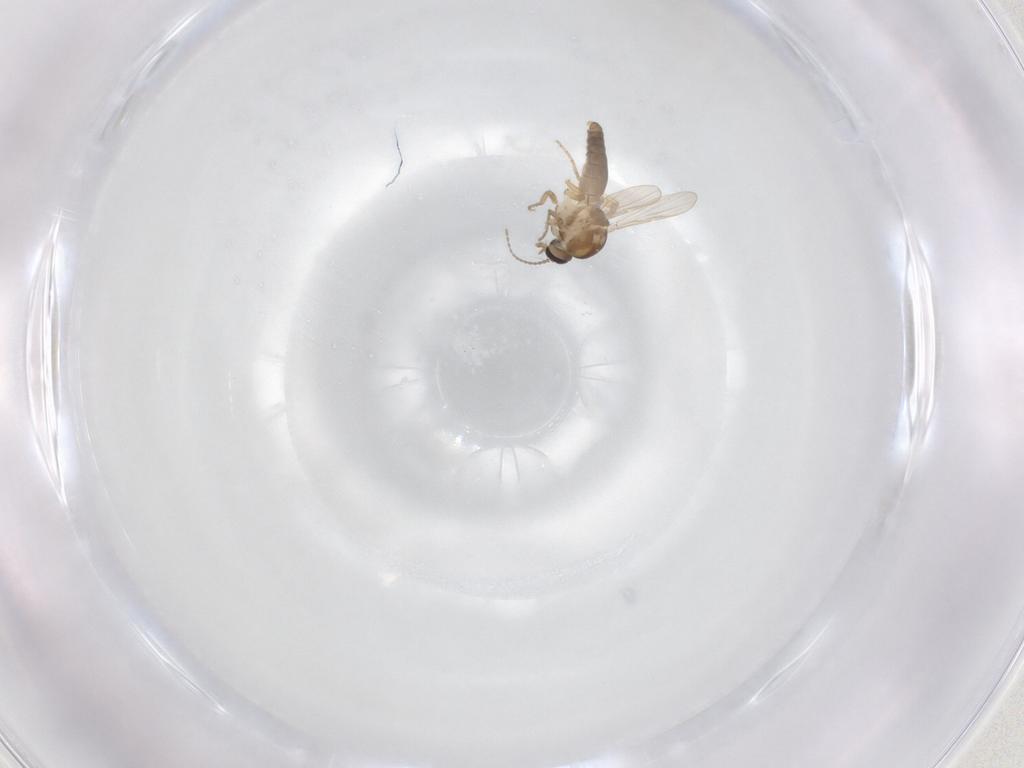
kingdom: Animalia
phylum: Arthropoda
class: Insecta
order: Diptera
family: Ceratopogonidae
